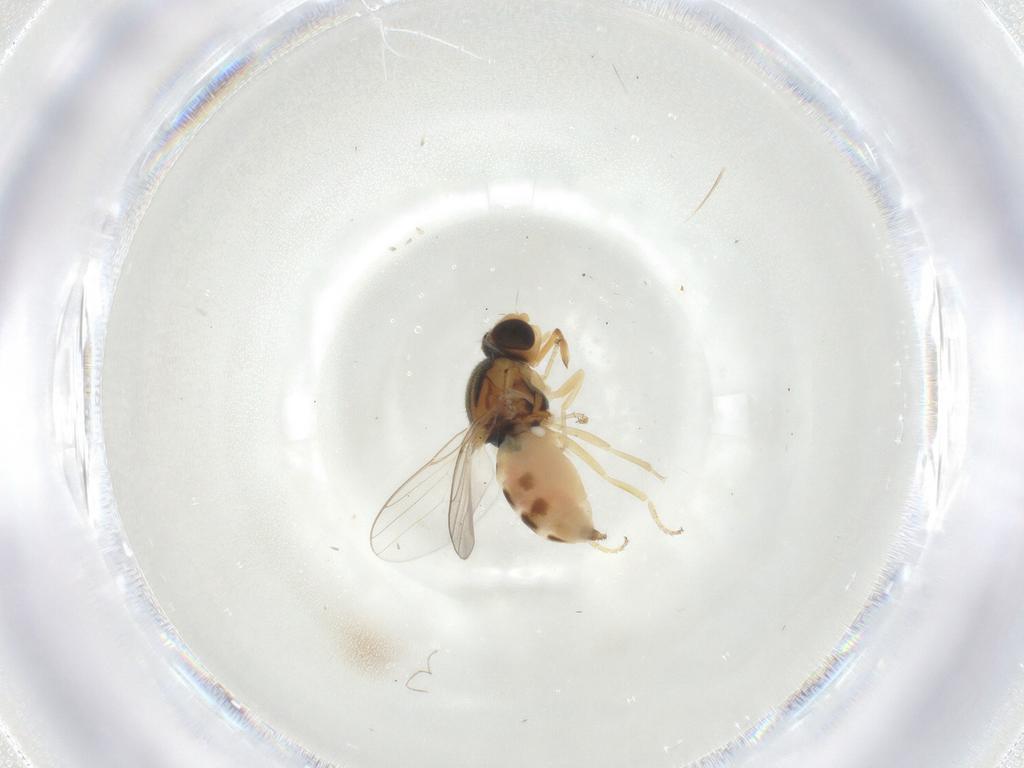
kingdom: Animalia
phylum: Arthropoda
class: Insecta
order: Diptera
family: Chloropidae
